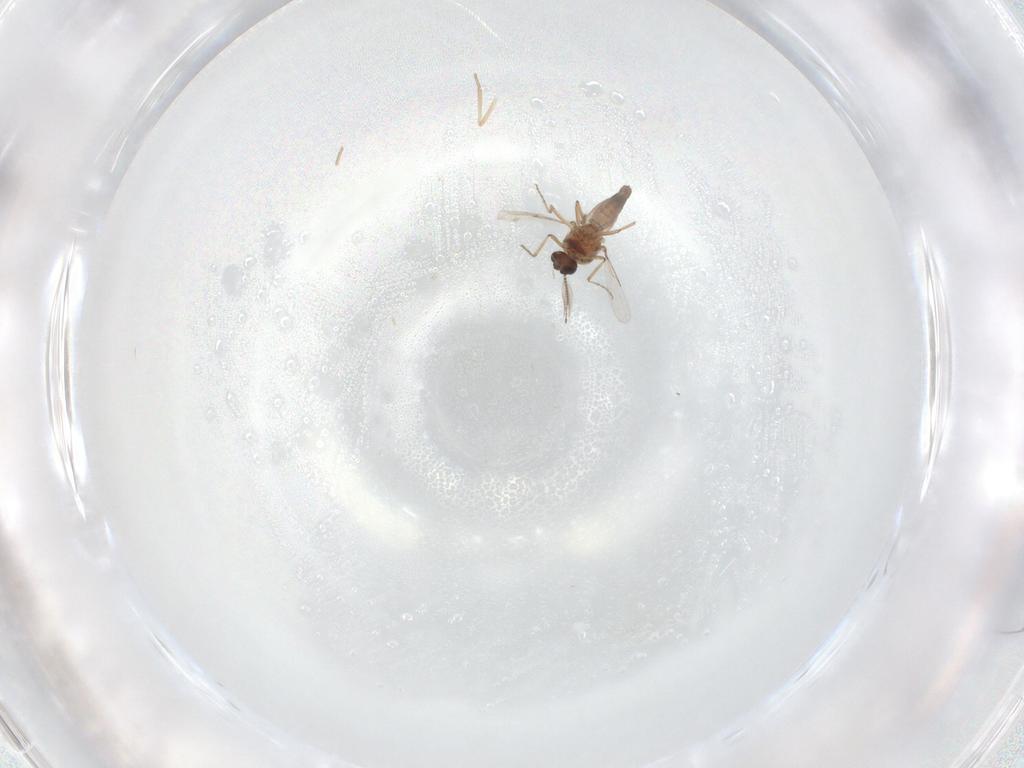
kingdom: Animalia
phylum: Arthropoda
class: Insecta
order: Diptera
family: Ceratopogonidae
